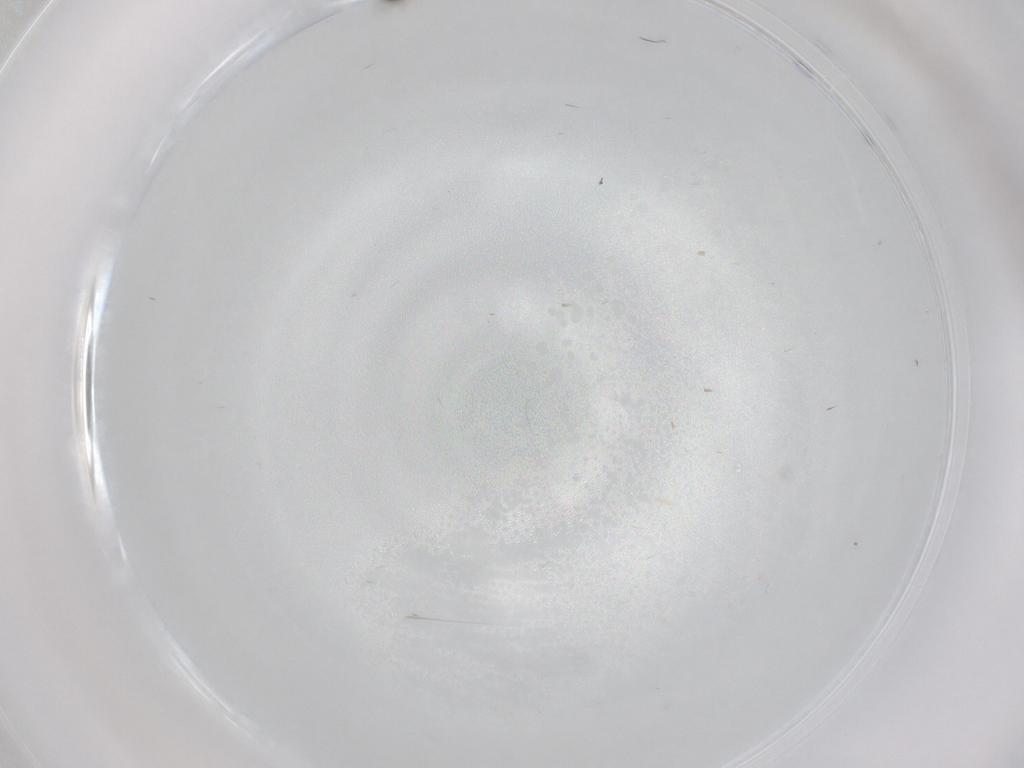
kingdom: Animalia
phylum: Arthropoda
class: Insecta
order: Diptera
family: Cecidomyiidae
